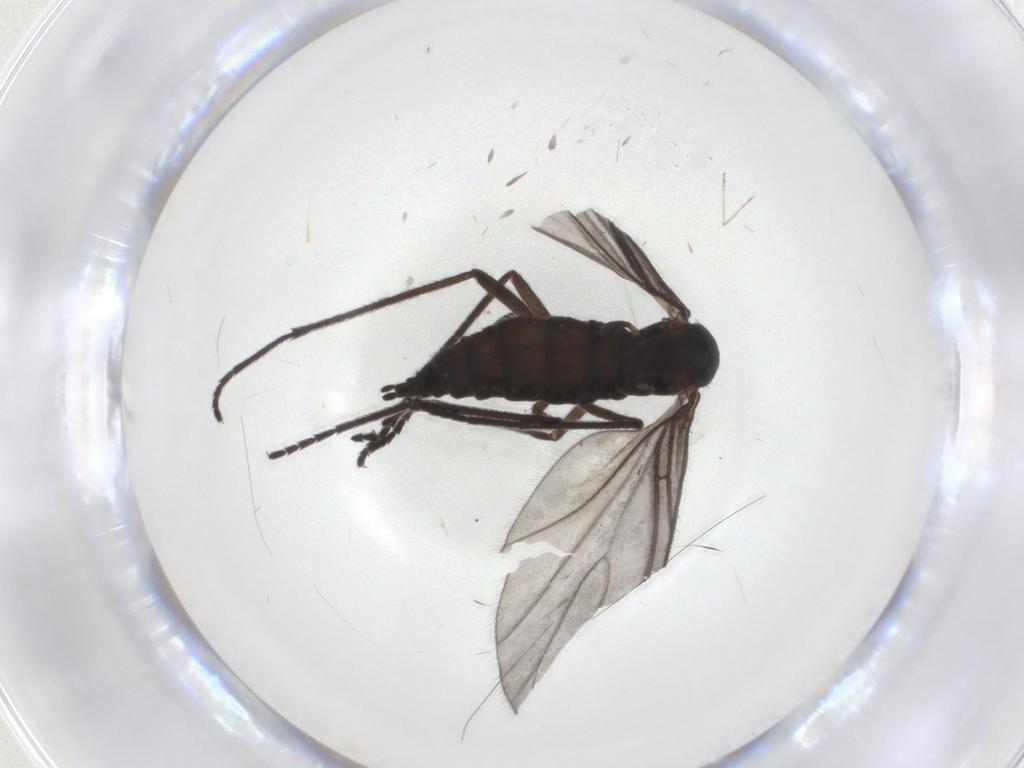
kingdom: Animalia
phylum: Arthropoda
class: Insecta
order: Diptera
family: Sciaridae
